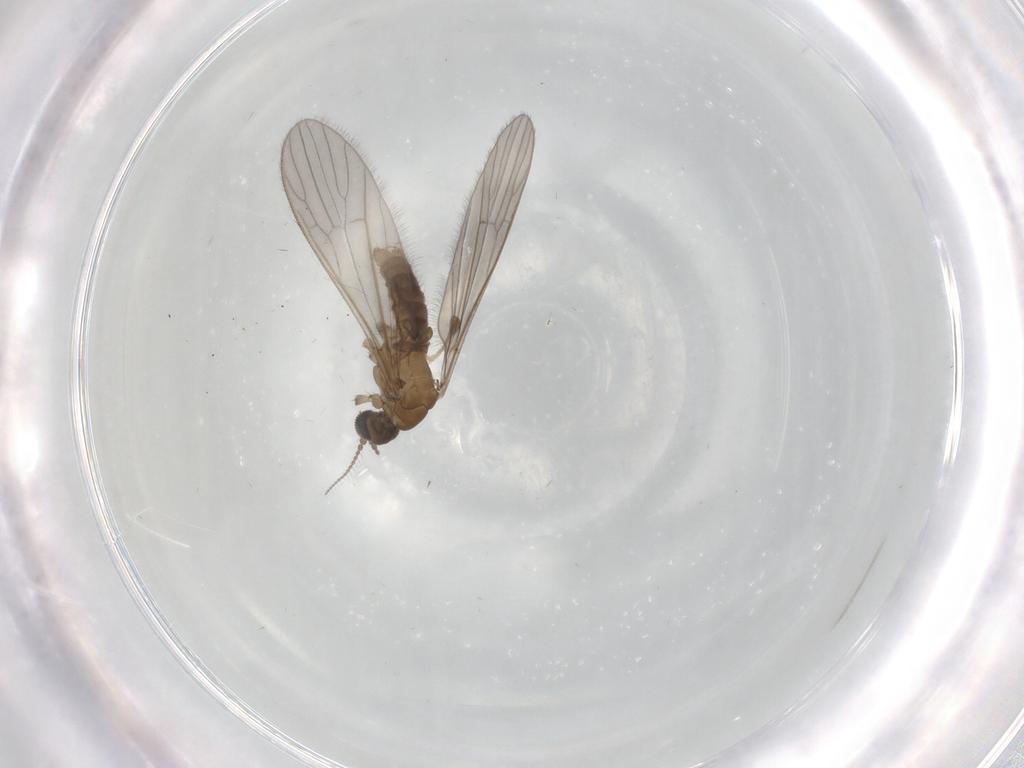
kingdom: Animalia
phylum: Arthropoda
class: Insecta
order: Diptera
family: Limoniidae
